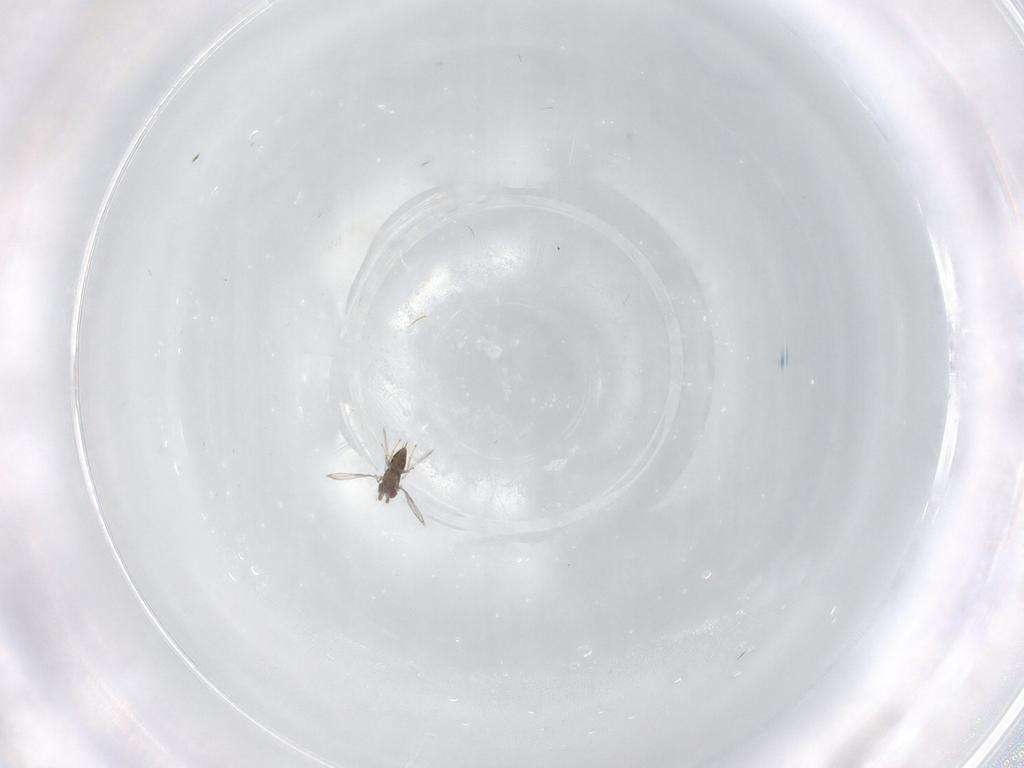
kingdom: Animalia
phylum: Arthropoda
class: Insecta
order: Hymenoptera
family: Trichogrammatidae
